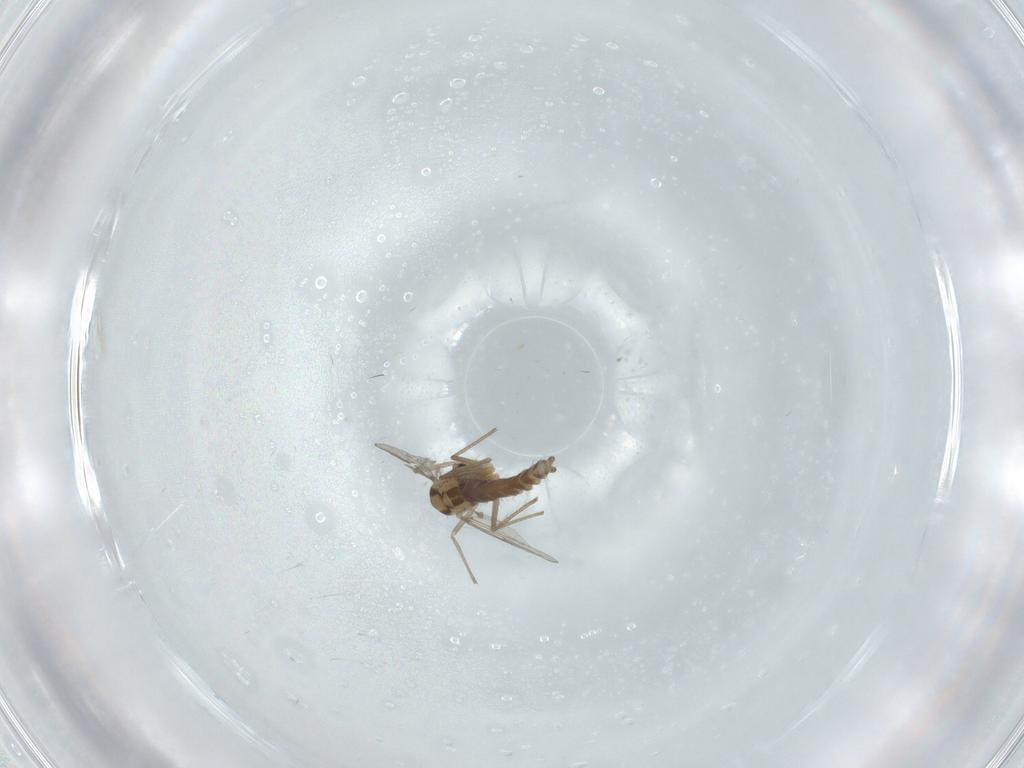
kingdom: Animalia
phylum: Arthropoda
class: Insecta
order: Diptera
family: Chironomidae
